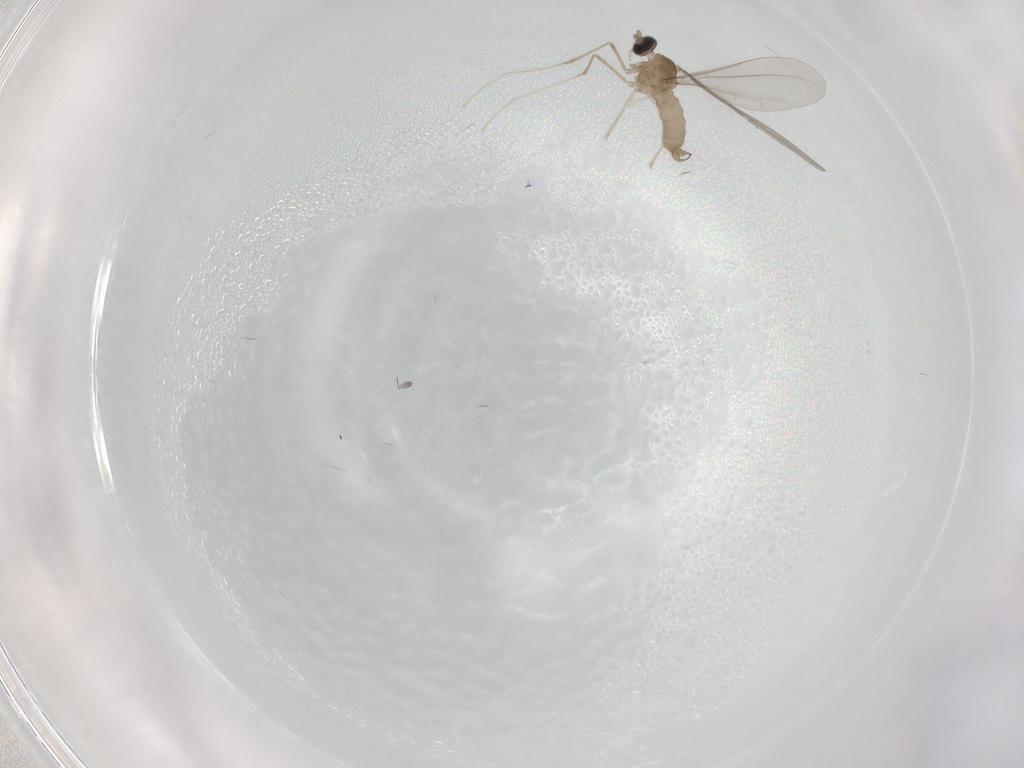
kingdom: Animalia
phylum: Arthropoda
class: Insecta
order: Diptera
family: Cecidomyiidae
